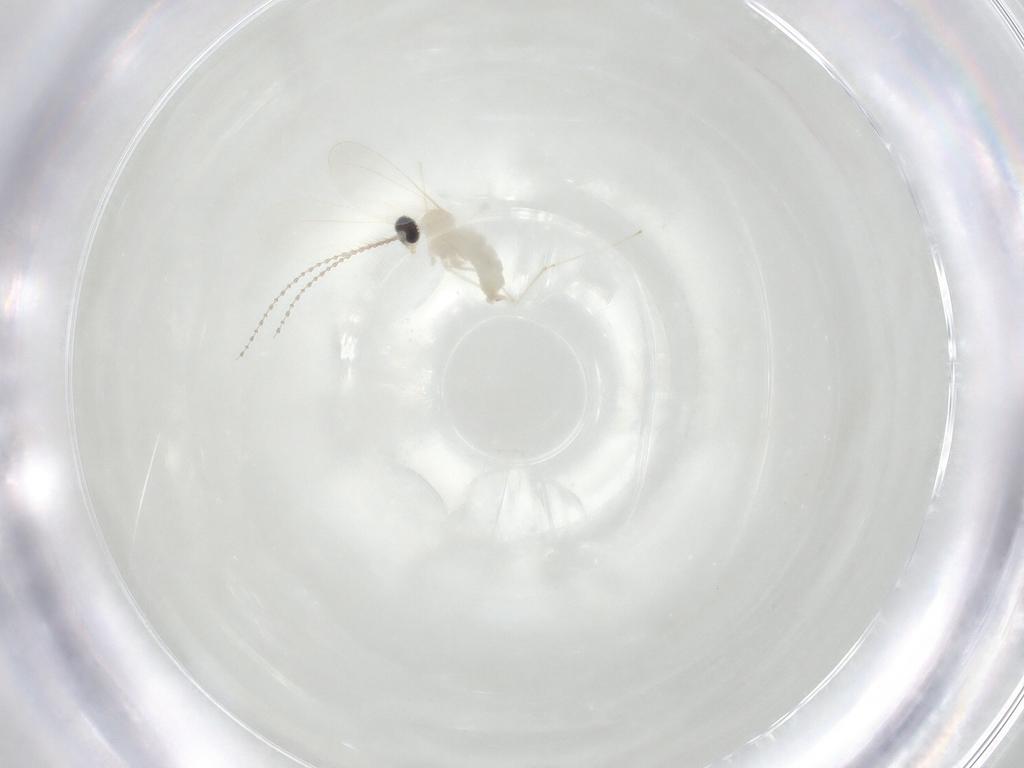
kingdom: Animalia
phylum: Arthropoda
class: Insecta
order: Diptera
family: Cecidomyiidae
